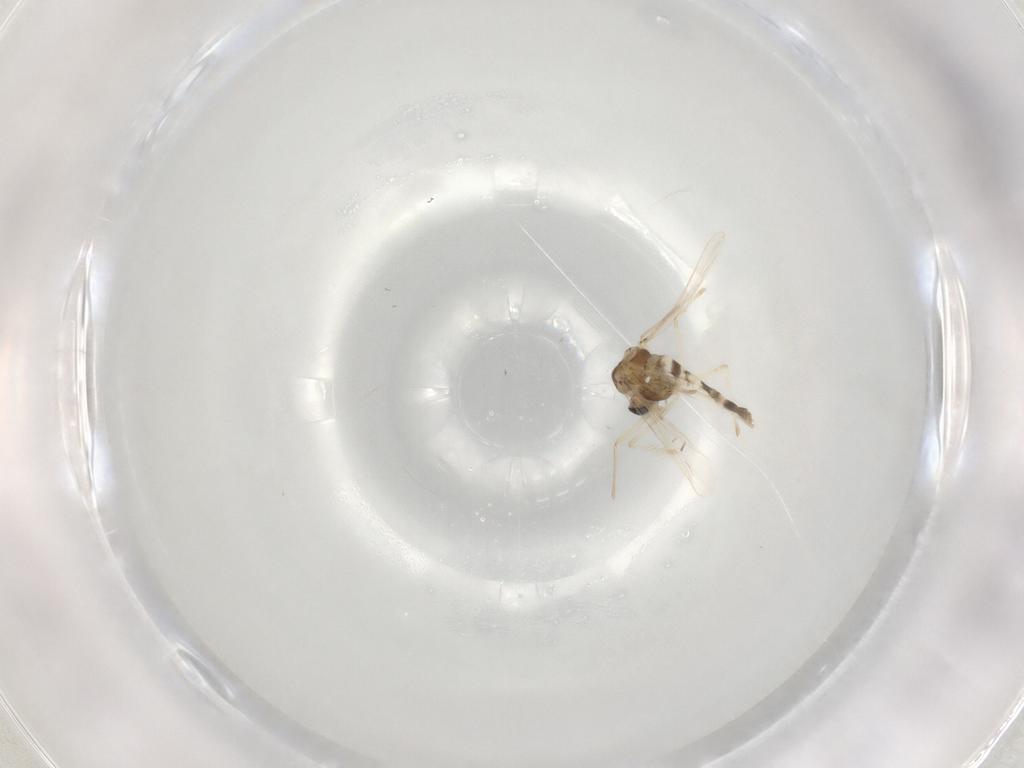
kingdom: Animalia
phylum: Arthropoda
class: Insecta
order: Diptera
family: Chironomidae
